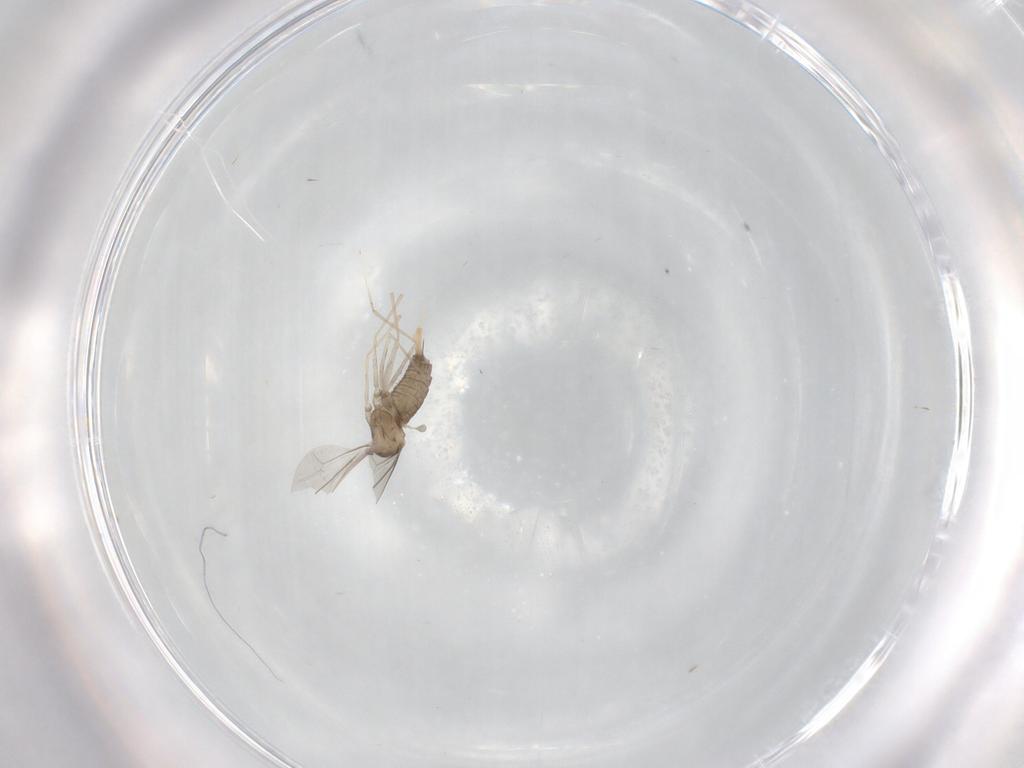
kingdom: Animalia
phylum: Arthropoda
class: Insecta
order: Diptera
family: Cecidomyiidae
